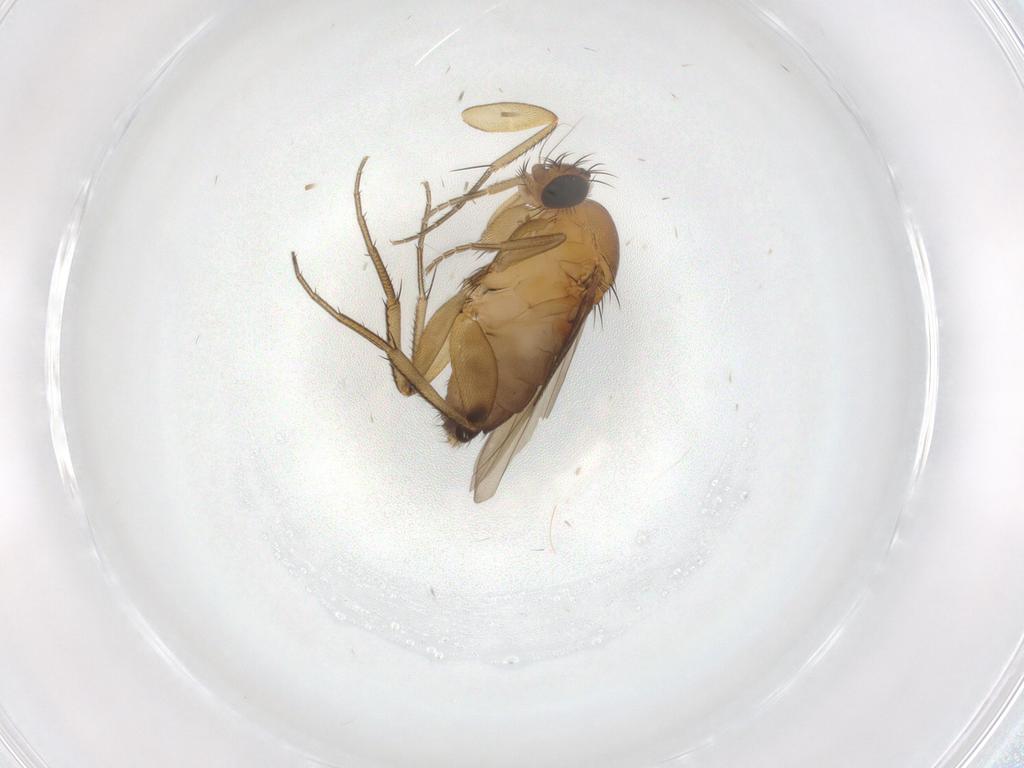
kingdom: Animalia
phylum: Arthropoda
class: Insecta
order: Diptera
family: Phoridae
